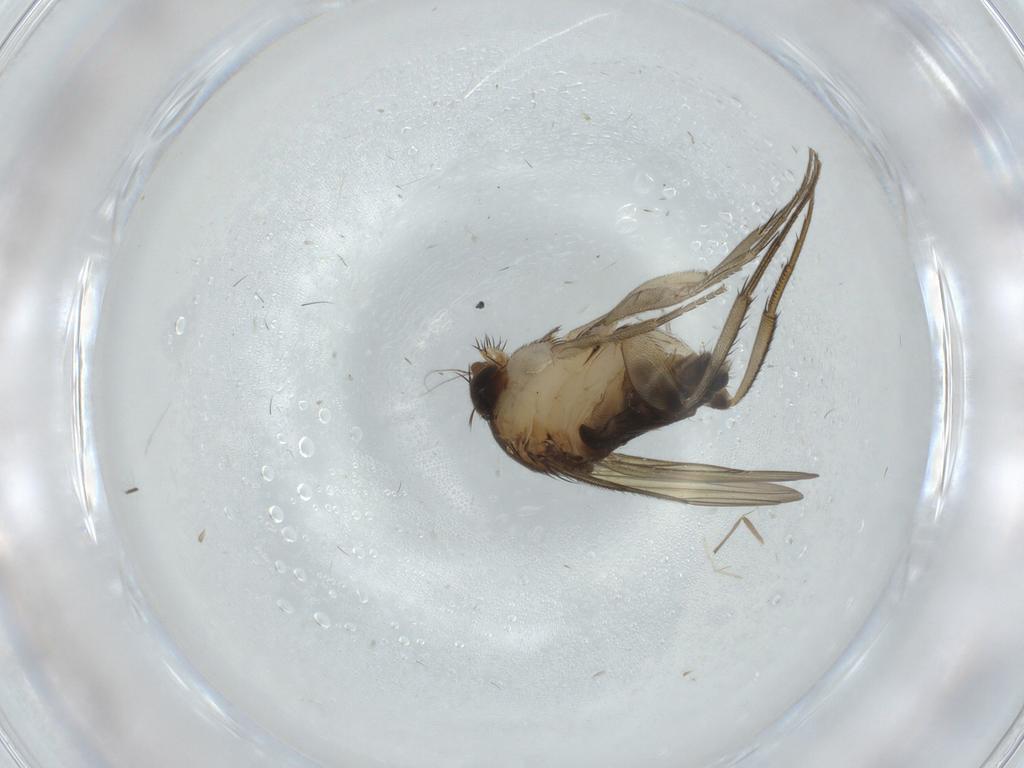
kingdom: Animalia
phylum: Arthropoda
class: Insecta
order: Diptera
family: Phoridae
